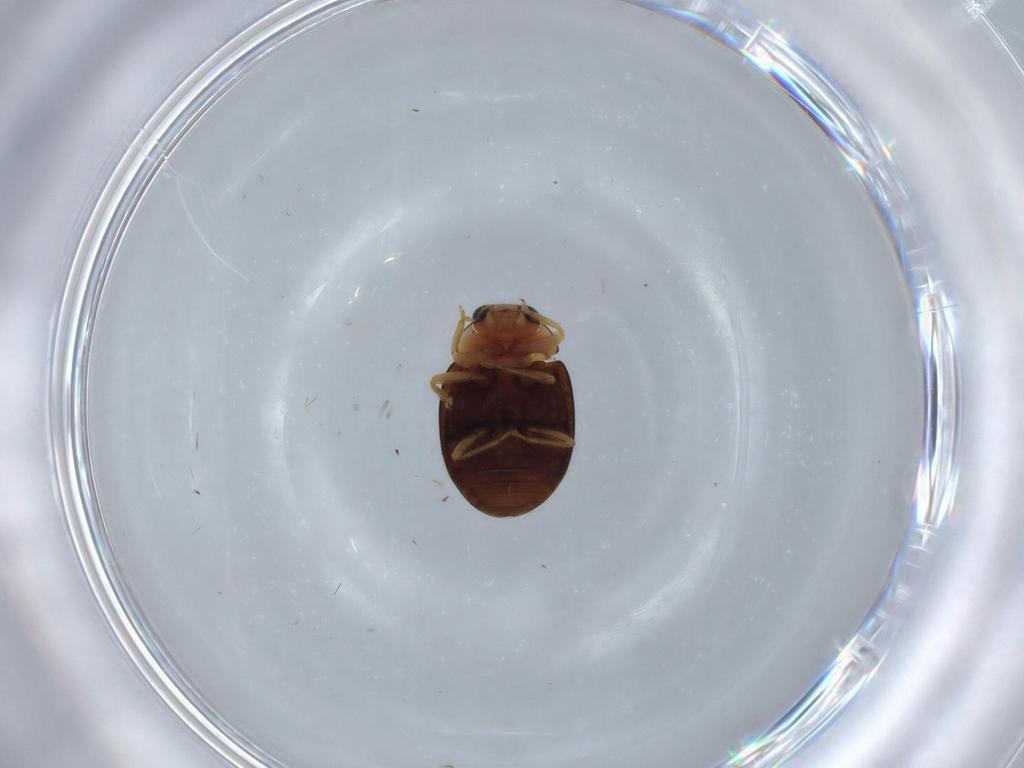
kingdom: Animalia
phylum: Arthropoda
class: Insecta
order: Coleoptera
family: Coccinellidae
